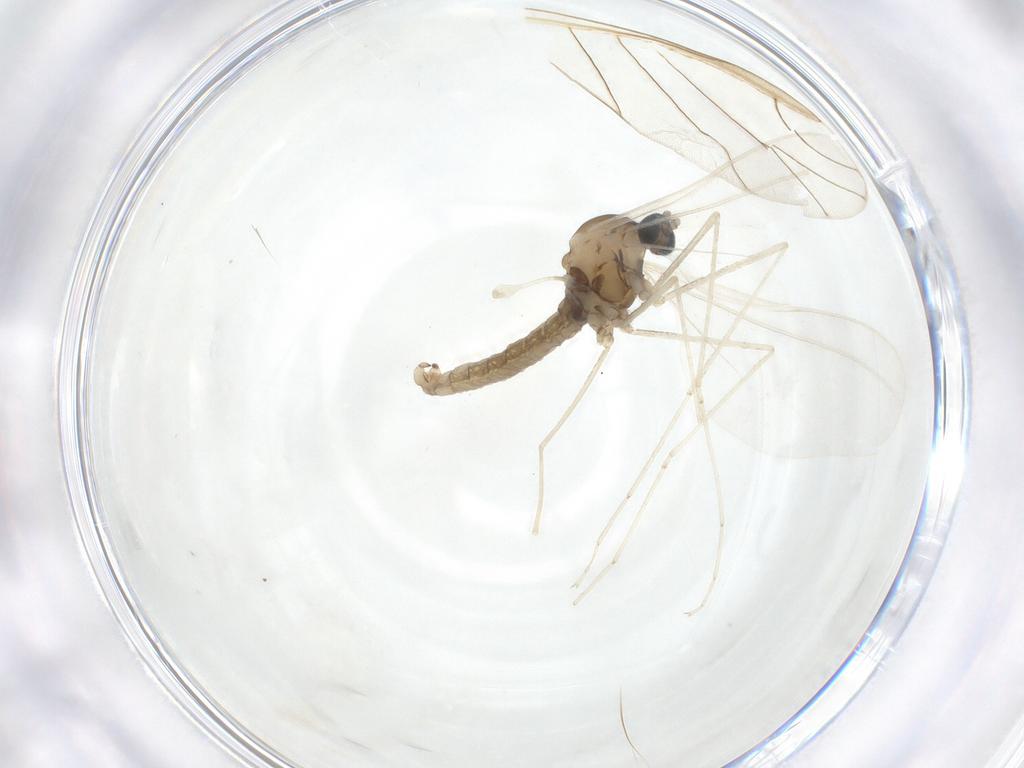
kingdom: Animalia
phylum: Arthropoda
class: Insecta
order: Diptera
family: Cecidomyiidae
